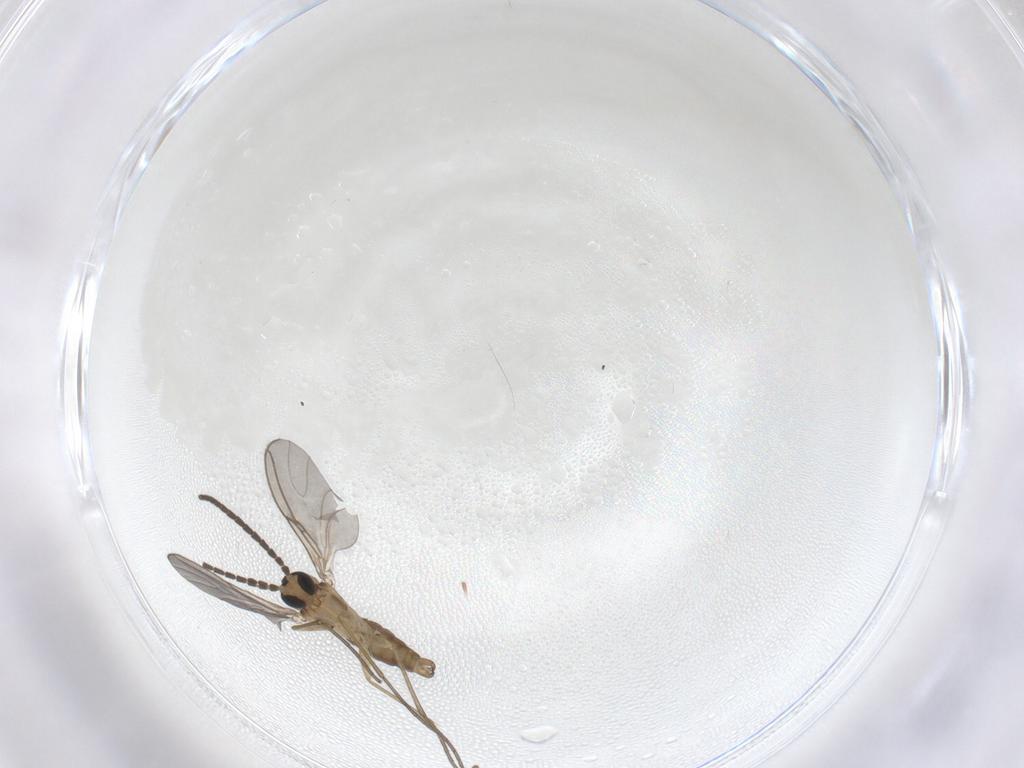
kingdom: Animalia
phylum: Arthropoda
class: Insecta
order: Diptera
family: Sciaridae
